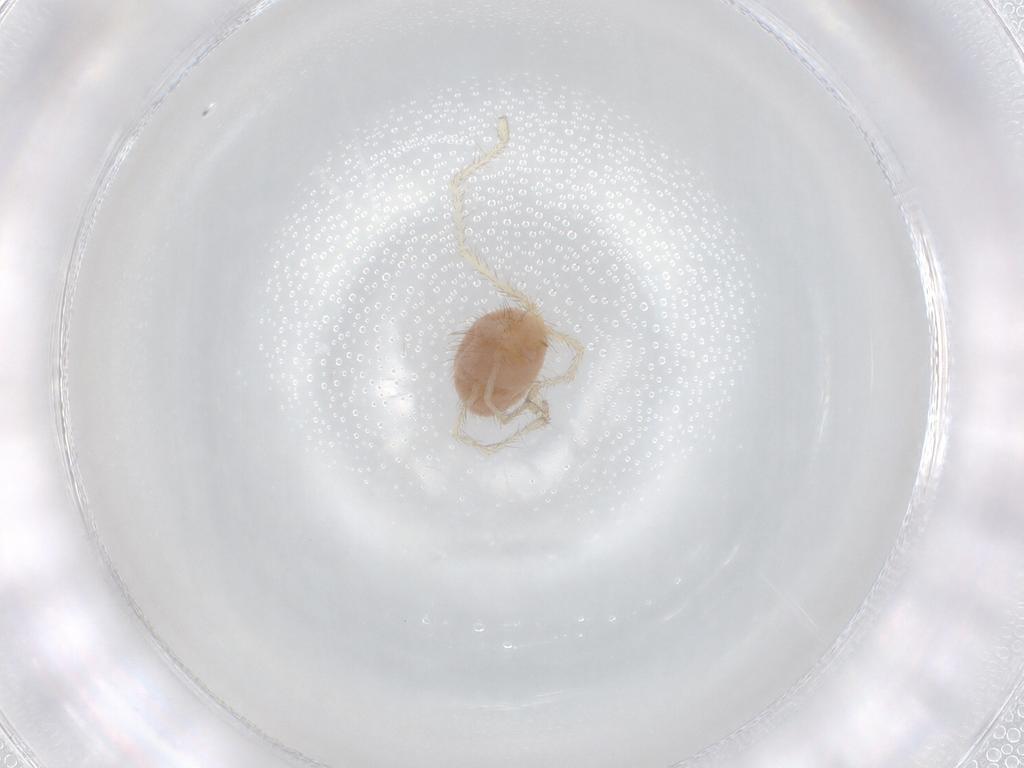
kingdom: Animalia
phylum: Arthropoda
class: Arachnida
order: Trombidiformes
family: Erythraeidae
